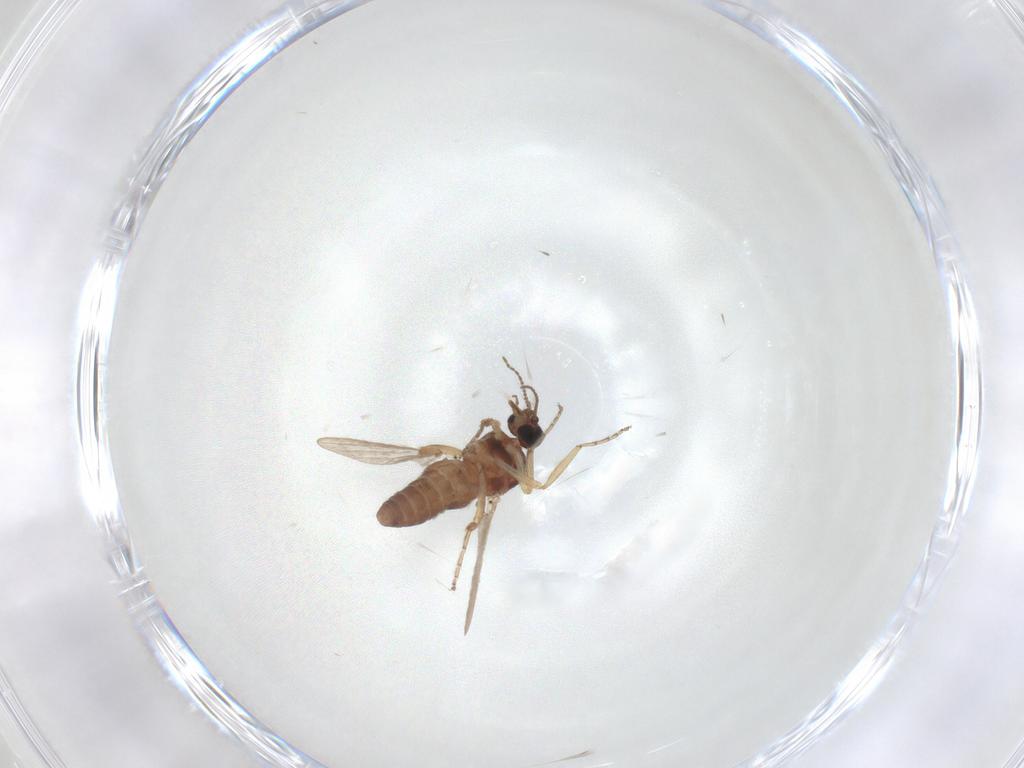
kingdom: Animalia
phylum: Arthropoda
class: Insecta
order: Diptera
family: Ceratopogonidae
